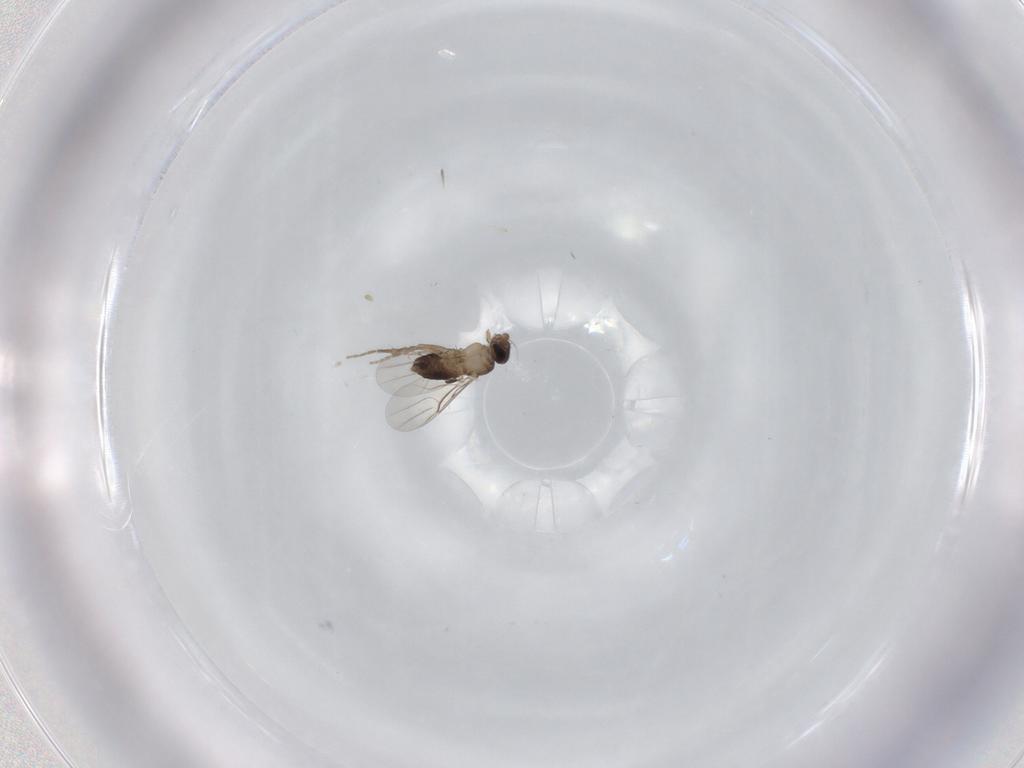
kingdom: Animalia
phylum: Arthropoda
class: Insecta
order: Diptera
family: Phoridae
